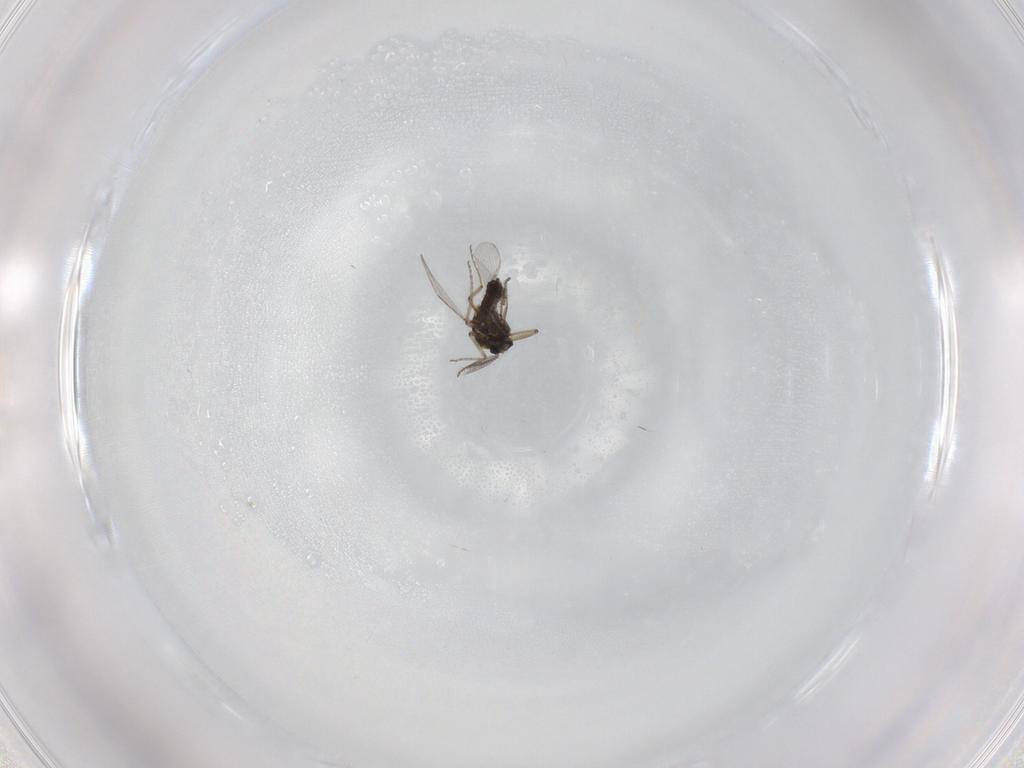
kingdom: Animalia
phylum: Arthropoda
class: Insecta
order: Diptera
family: Ceratopogonidae
